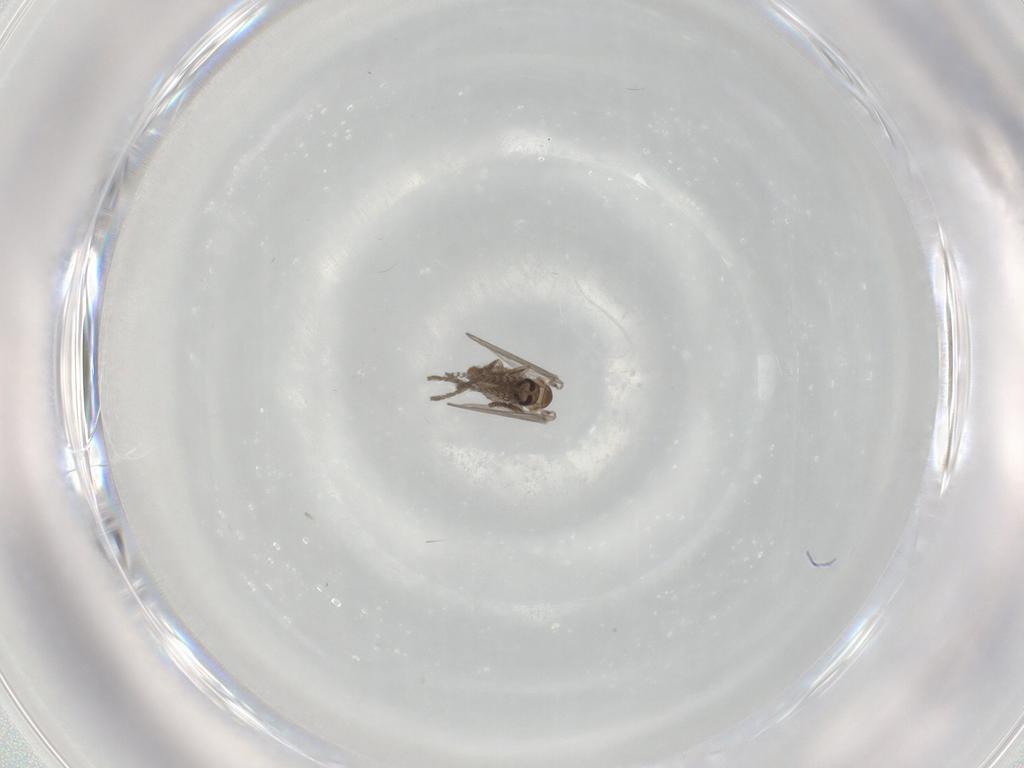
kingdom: Animalia
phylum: Arthropoda
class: Insecta
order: Diptera
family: Psychodidae
